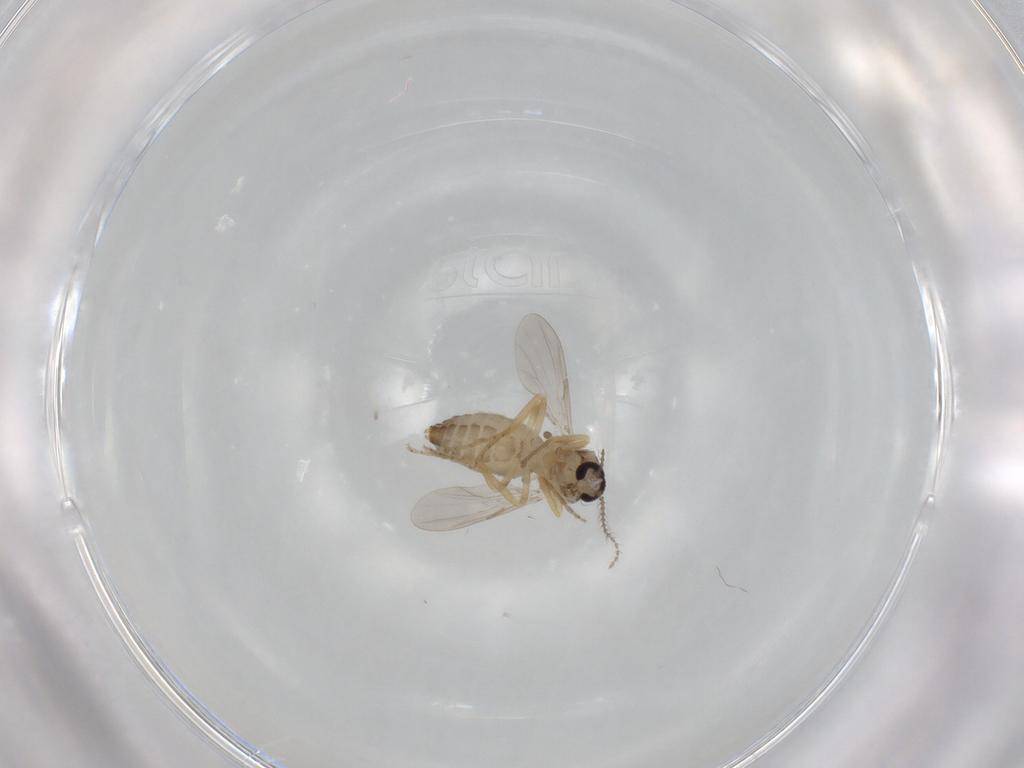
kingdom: Animalia
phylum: Arthropoda
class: Insecta
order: Diptera
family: Ceratopogonidae
